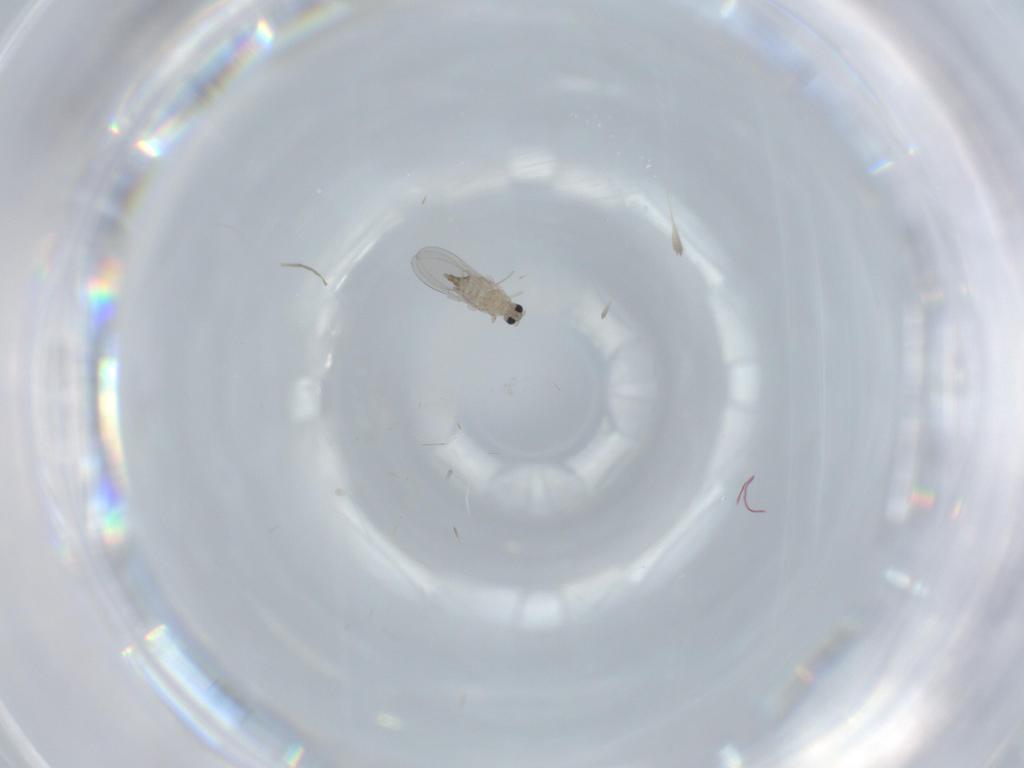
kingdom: Animalia
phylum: Arthropoda
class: Insecta
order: Diptera
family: Cecidomyiidae
